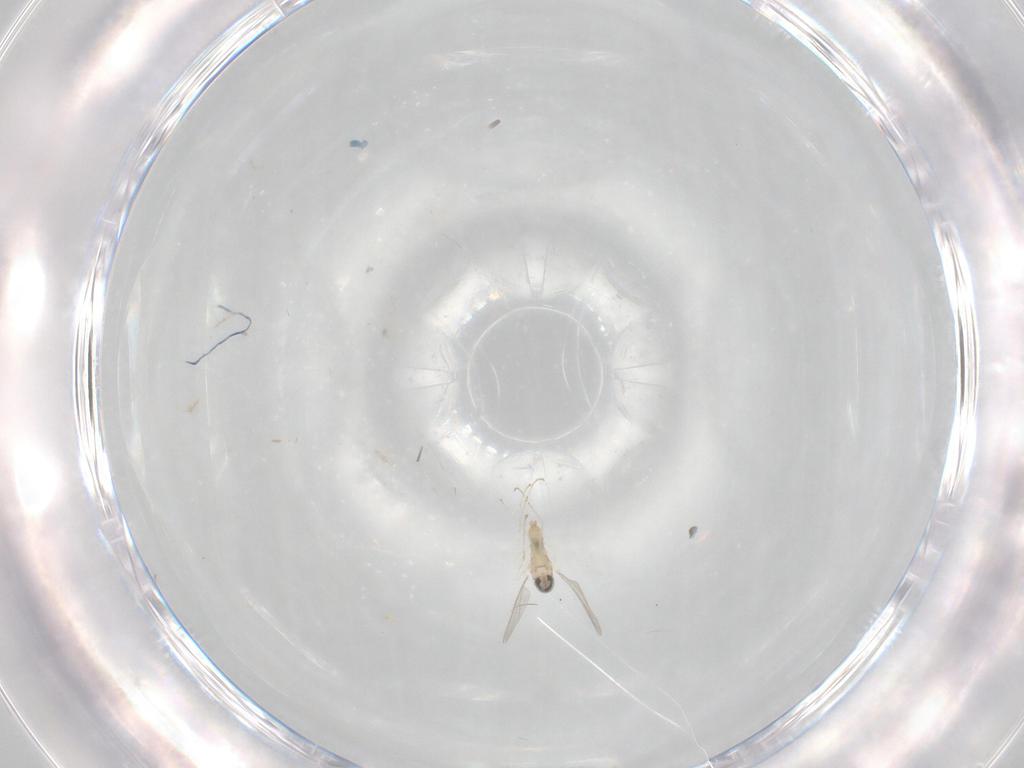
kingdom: Animalia
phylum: Arthropoda
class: Insecta
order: Diptera
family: Cecidomyiidae
